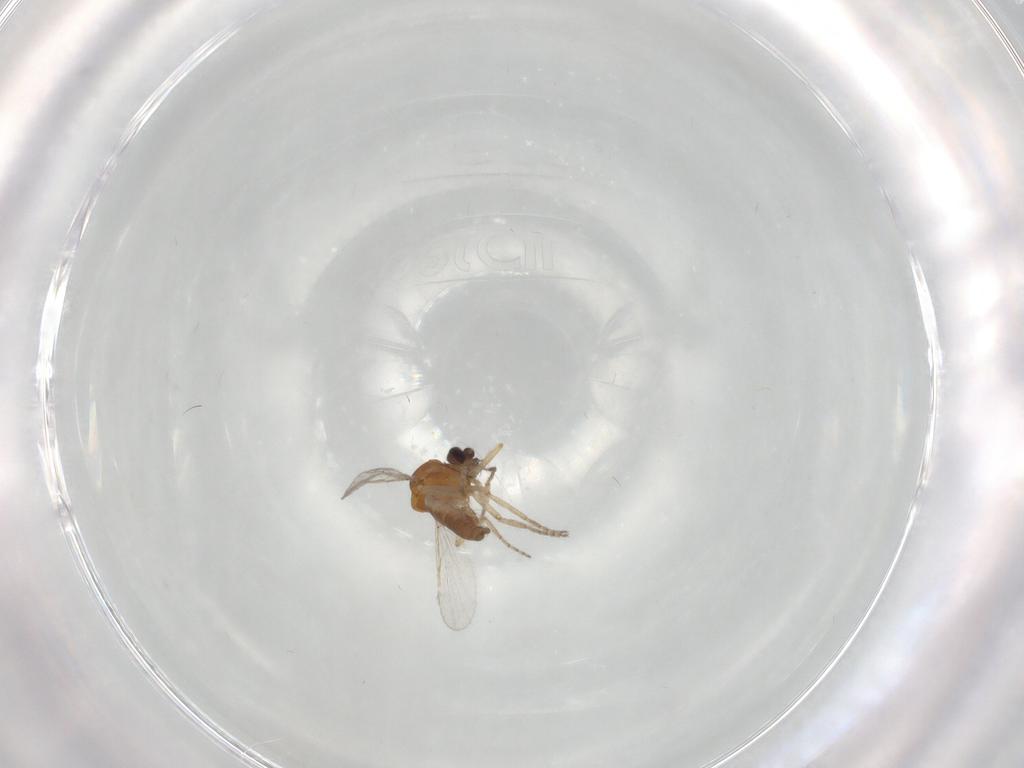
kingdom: Animalia
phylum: Arthropoda
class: Insecta
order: Diptera
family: Ceratopogonidae
